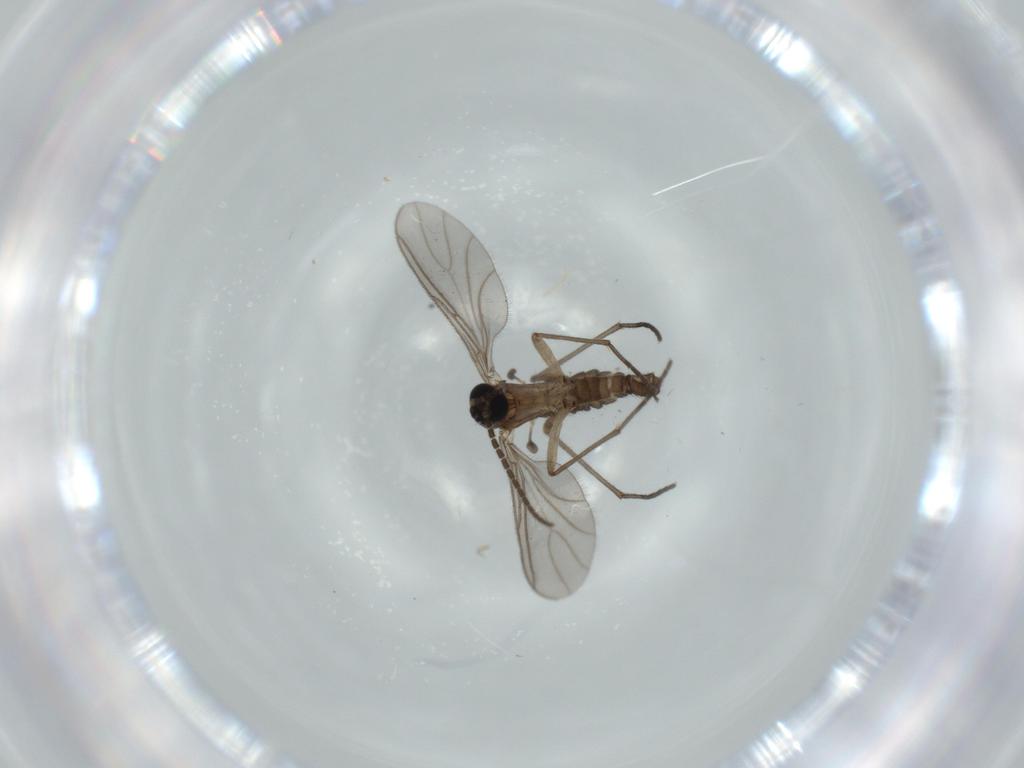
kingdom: Animalia
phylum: Arthropoda
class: Insecta
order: Diptera
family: Sciaridae
